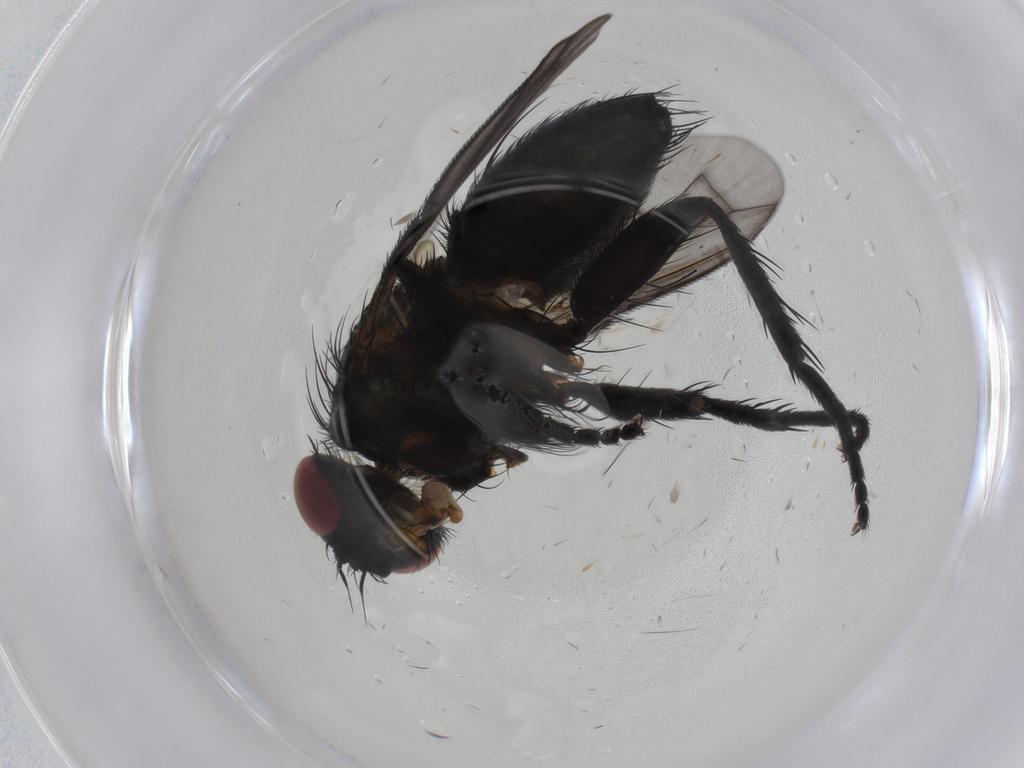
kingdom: Animalia
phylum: Arthropoda
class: Insecta
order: Diptera
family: Tachinidae
